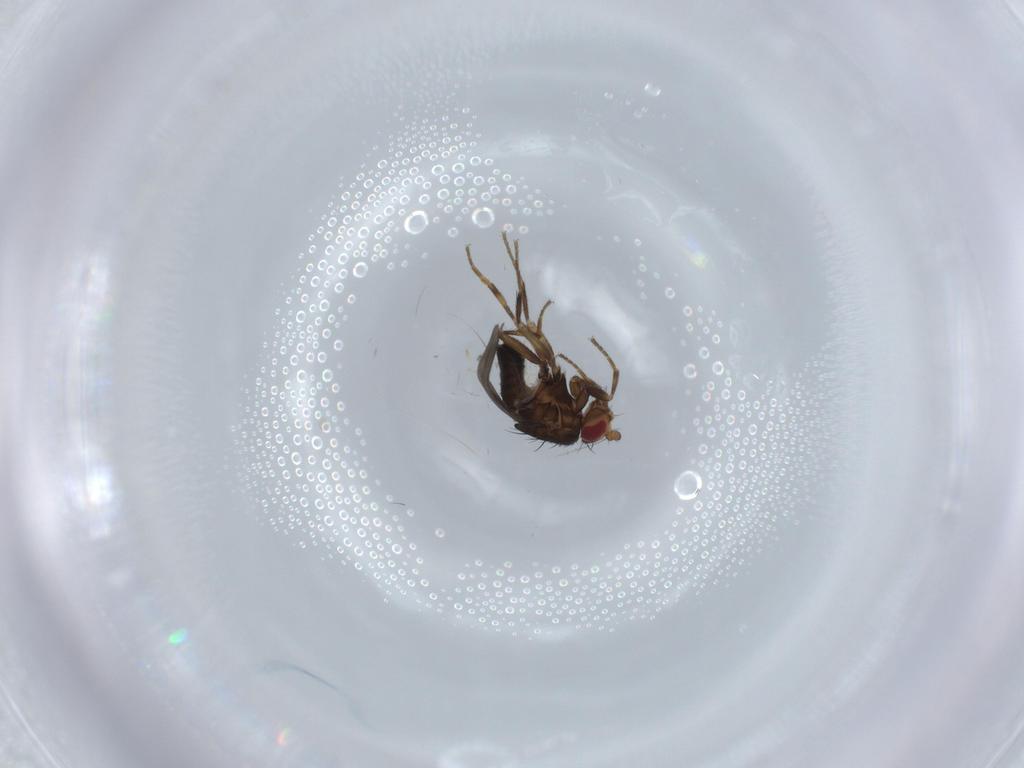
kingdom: Animalia
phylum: Arthropoda
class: Insecta
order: Diptera
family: Sphaeroceridae
